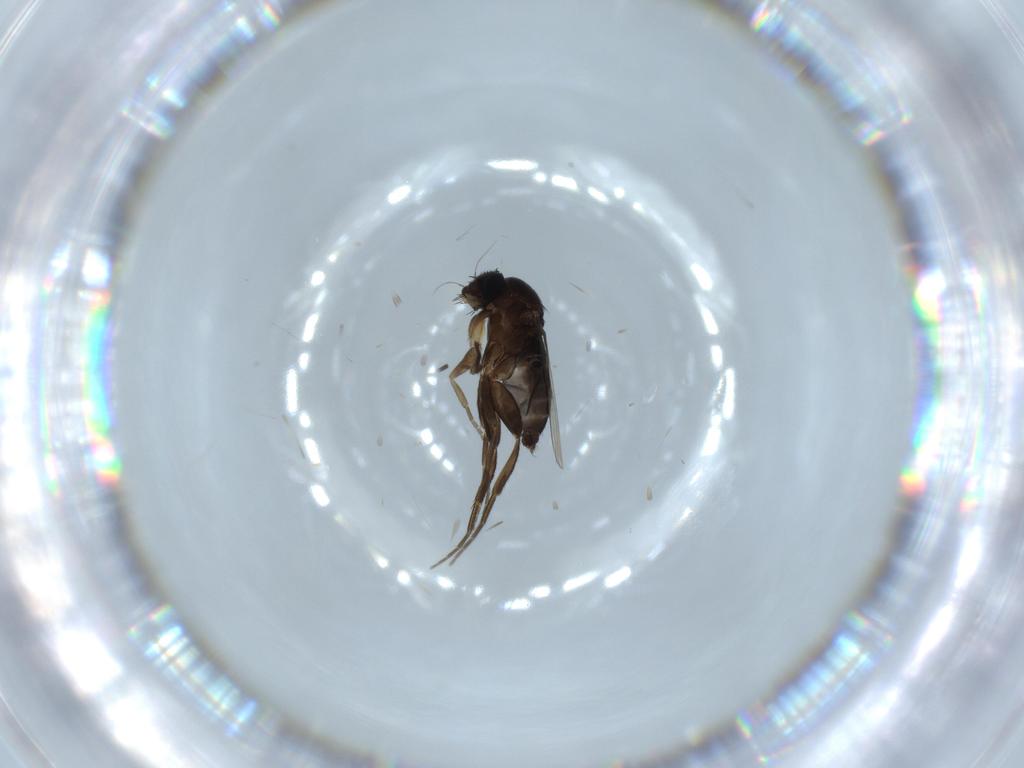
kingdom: Animalia
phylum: Arthropoda
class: Insecta
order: Diptera
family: Phoridae
